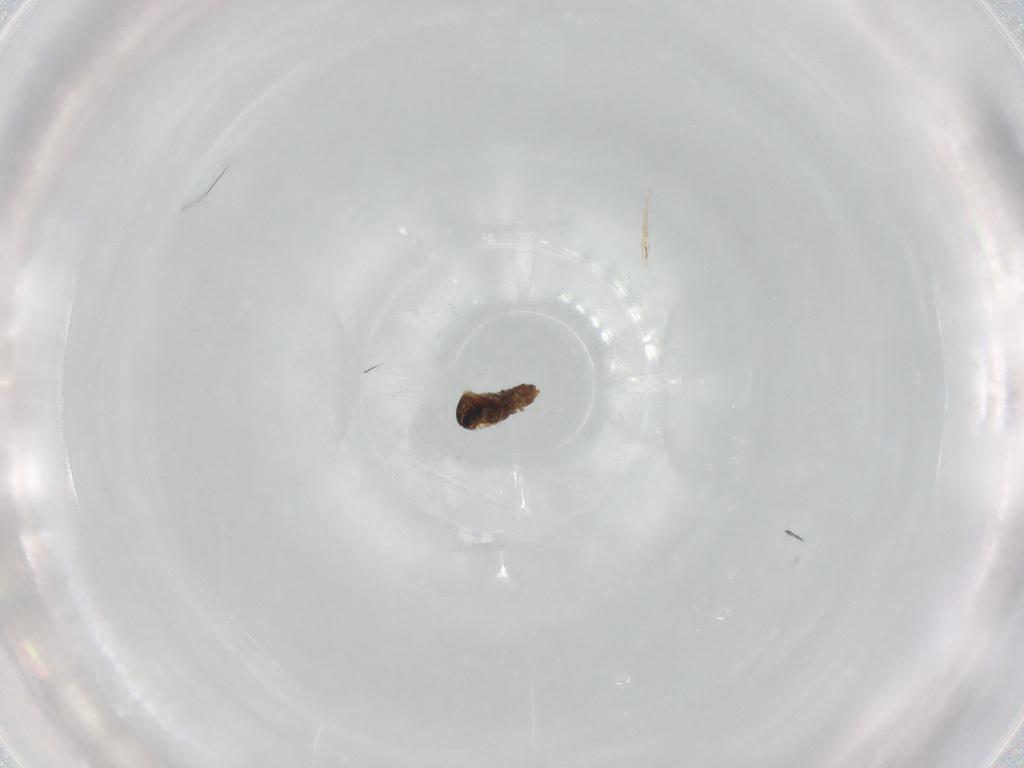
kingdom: Animalia
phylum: Arthropoda
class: Insecta
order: Diptera
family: Cecidomyiidae
